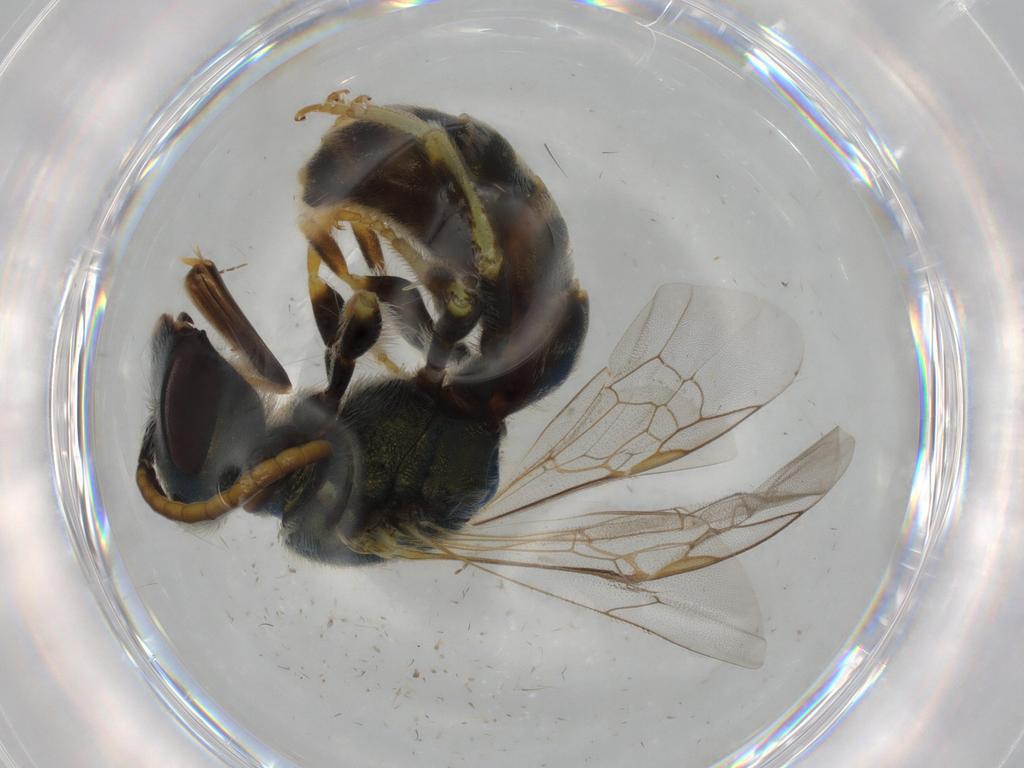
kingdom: Animalia
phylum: Arthropoda
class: Insecta
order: Hymenoptera
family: Halictidae
